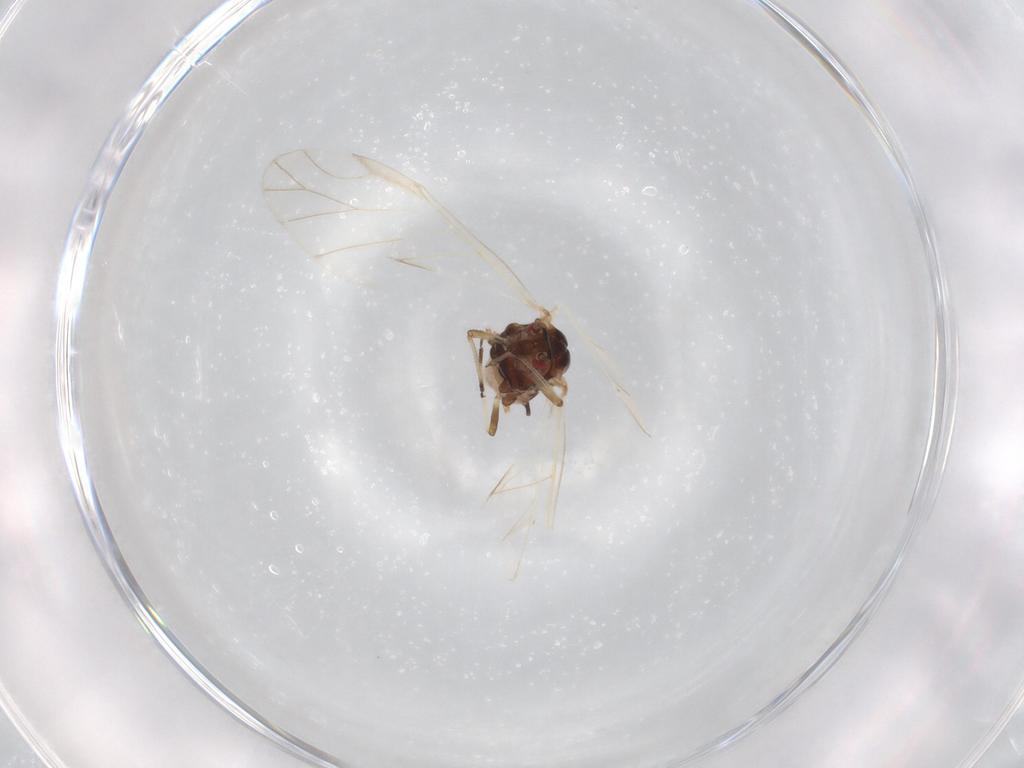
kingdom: Animalia
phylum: Arthropoda
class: Insecta
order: Hemiptera
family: Aphididae
